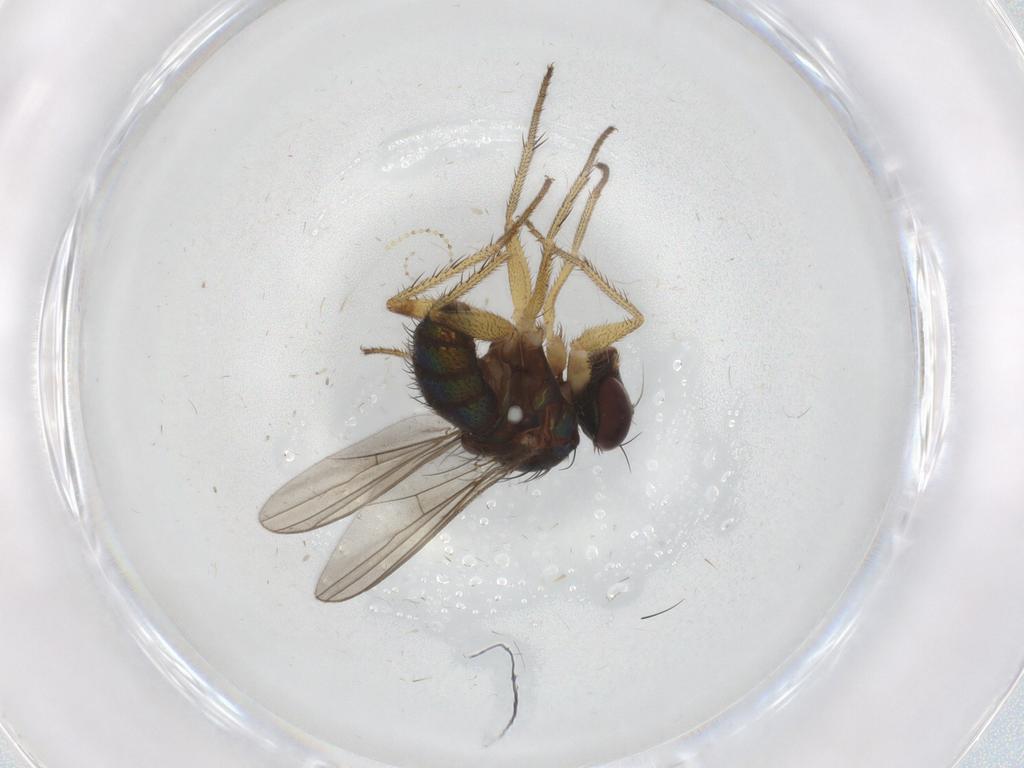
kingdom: Animalia
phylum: Arthropoda
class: Insecta
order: Diptera
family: Dolichopodidae
